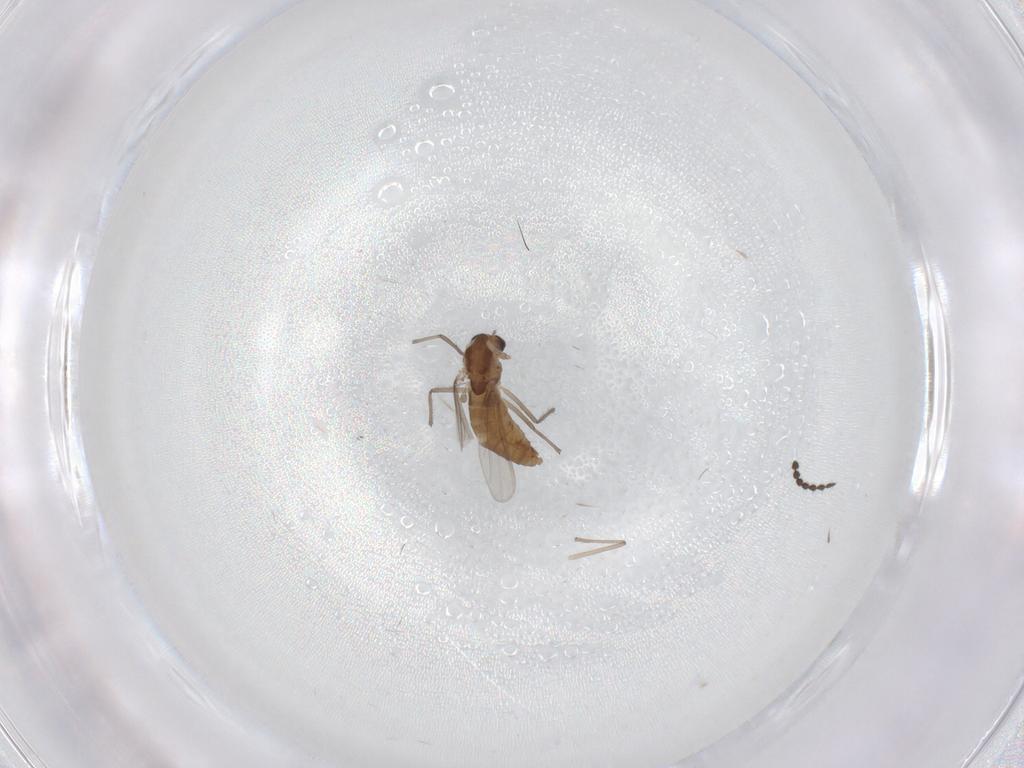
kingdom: Animalia
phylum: Arthropoda
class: Insecta
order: Diptera
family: Chironomidae
